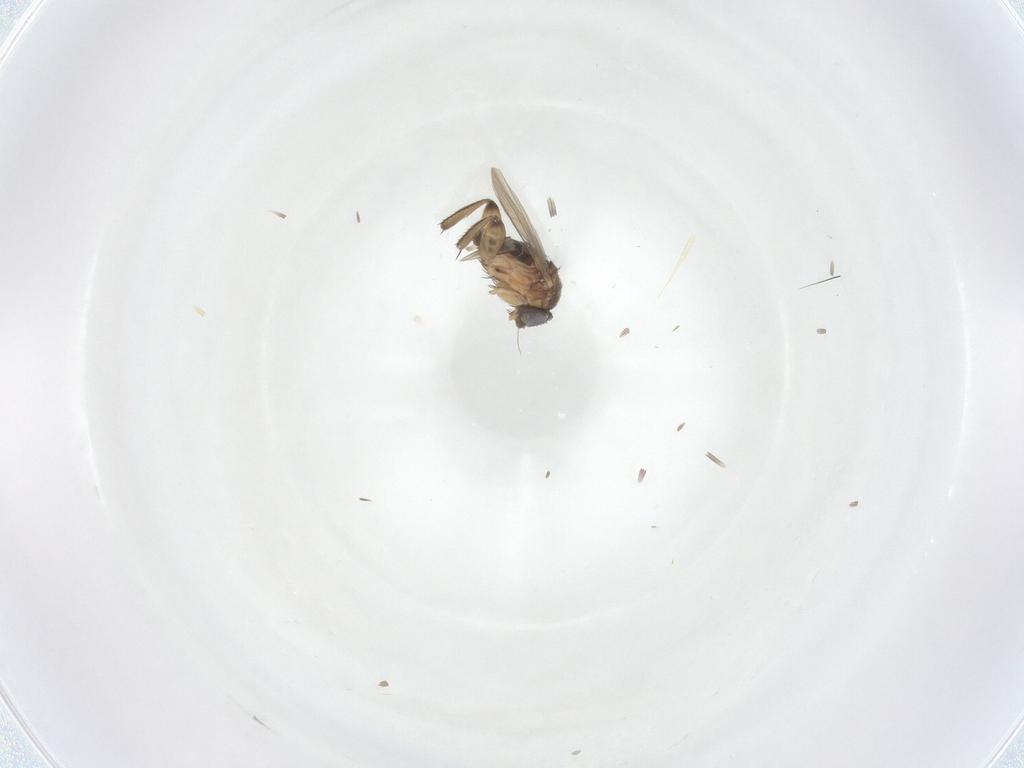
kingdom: Animalia
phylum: Arthropoda
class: Insecta
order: Diptera
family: Sciaridae
